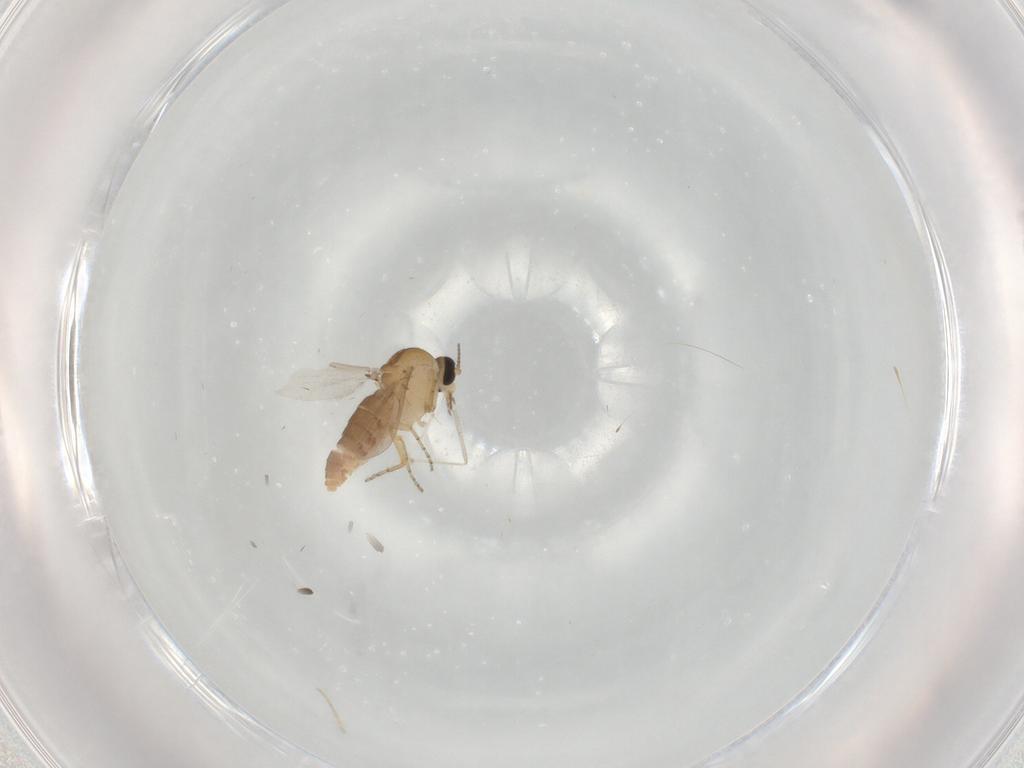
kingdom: Animalia
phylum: Arthropoda
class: Insecta
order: Diptera
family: Ceratopogonidae
